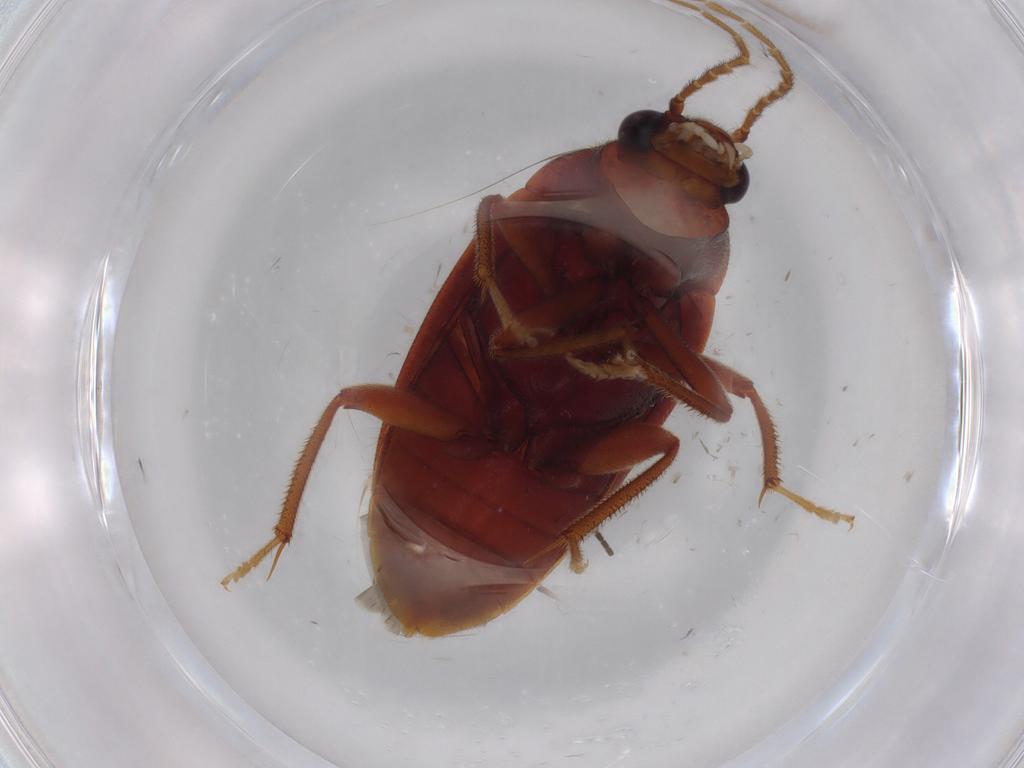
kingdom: Animalia
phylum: Arthropoda
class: Insecta
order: Coleoptera
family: Ptilodactylidae
